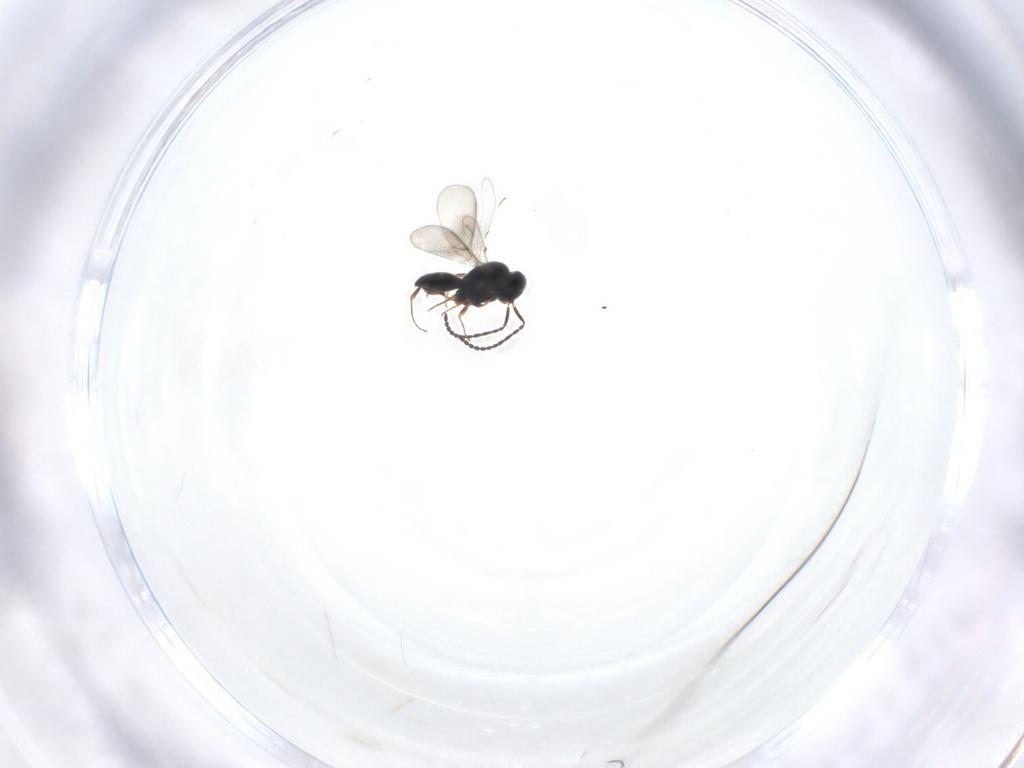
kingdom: Animalia
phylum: Arthropoda
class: Insecta
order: Hymenoptera
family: Scelionidae
